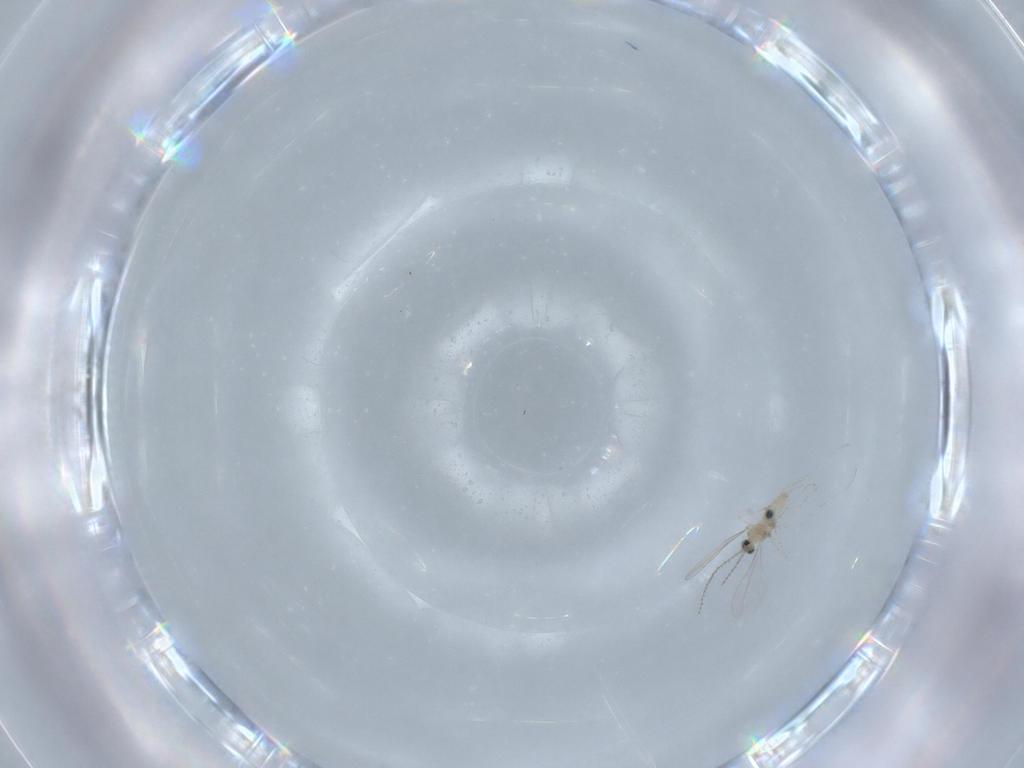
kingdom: Animalia
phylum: Arthropoda
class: Insecta
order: Diptera
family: Cecidomyiidae
